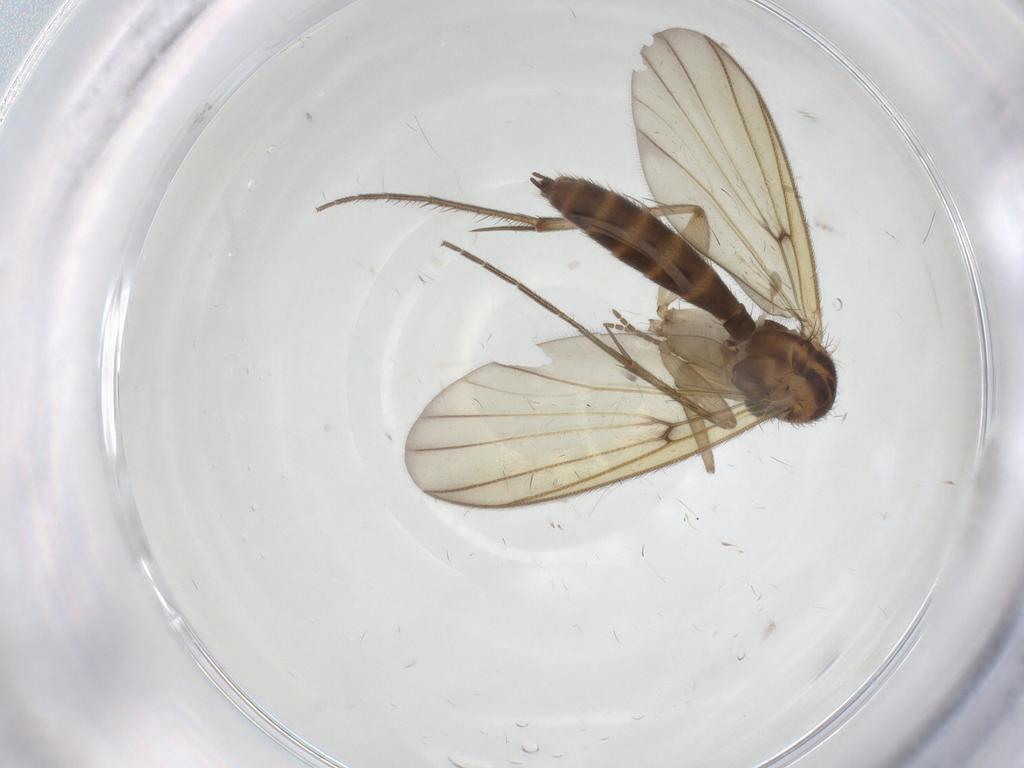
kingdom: Animalia
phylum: Arthropoda
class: Insecta
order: Diptera
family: Mycetophilidae
